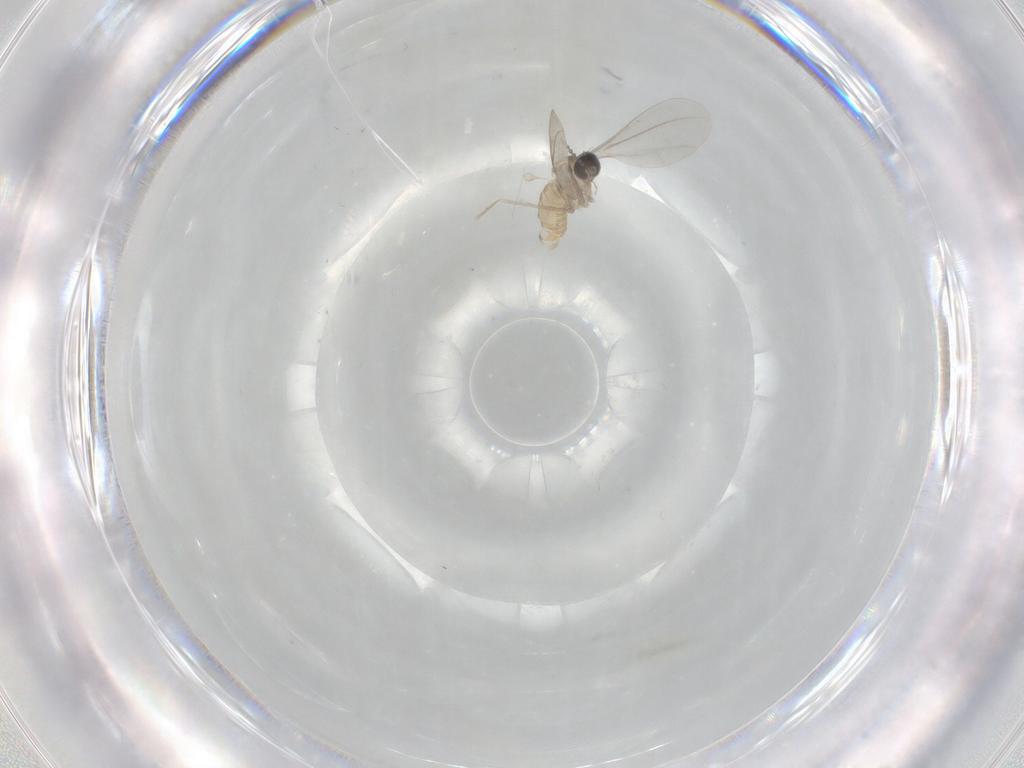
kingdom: Animalia
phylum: Arthropoda
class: Insecta
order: Diptera
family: Cecidomyiidae
